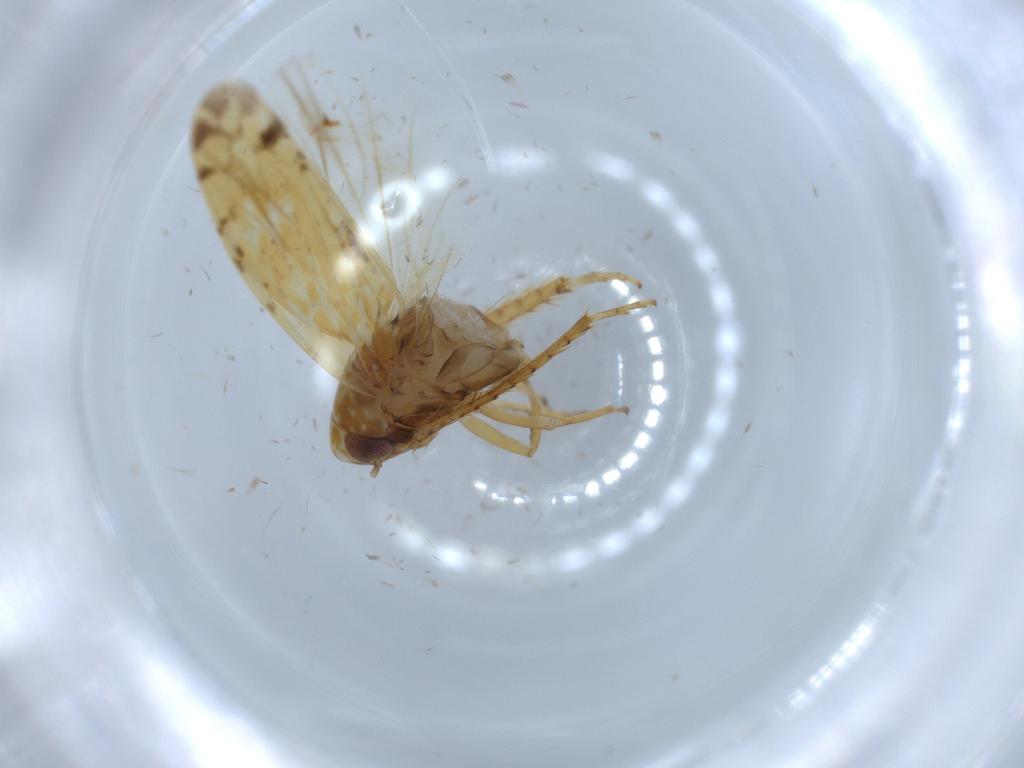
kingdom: Animalia
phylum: Arthropoda
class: Insecta
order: Hemiptera
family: Cicadellidae
